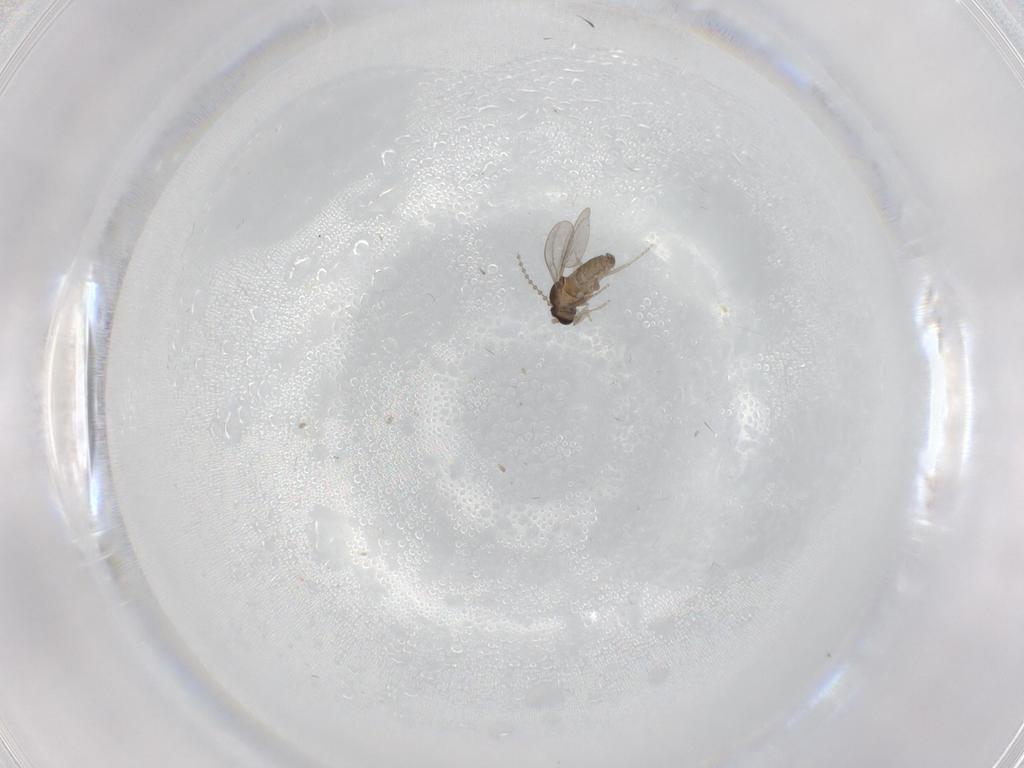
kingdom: Animalia
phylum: Arthropoda
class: Insecta
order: Diptera
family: Cecidomyiidae
